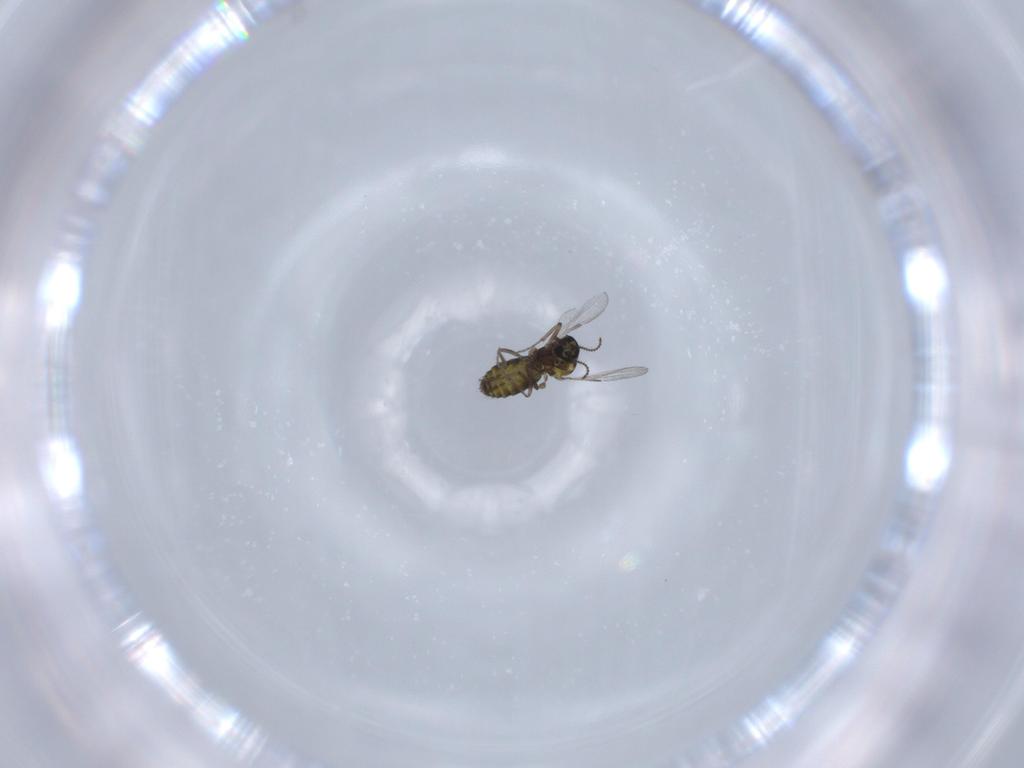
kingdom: Animalia
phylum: Arthropoda
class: Insecta
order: Diptera
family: Ceratopogonidae
